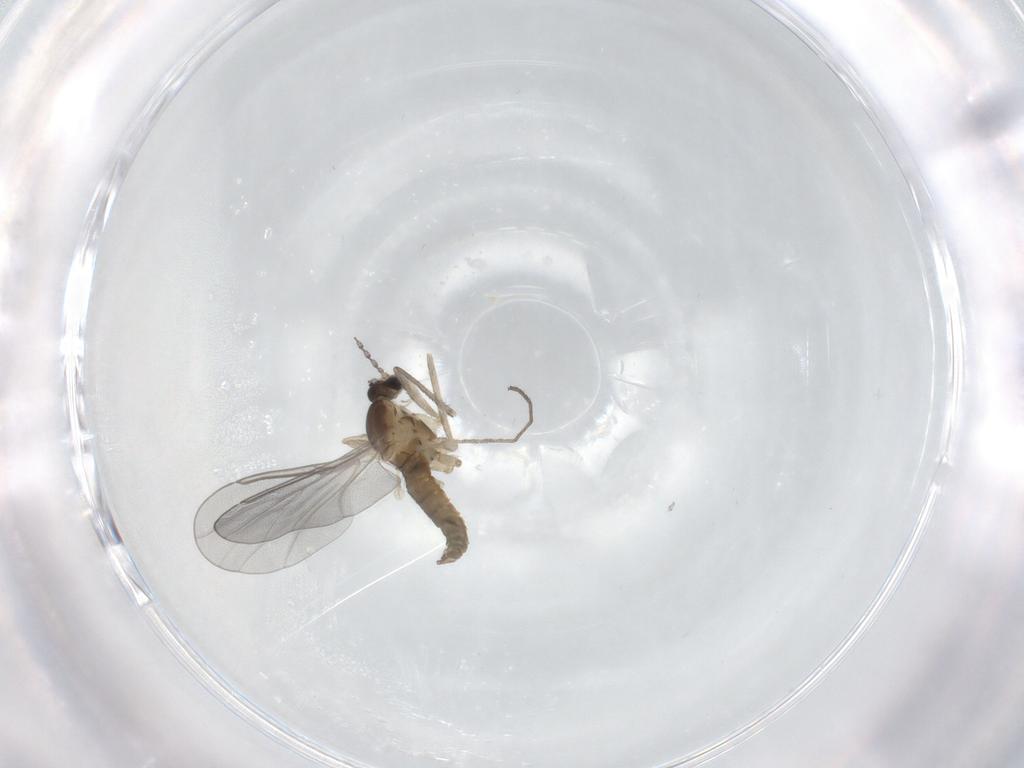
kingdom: Animalia
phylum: Arthropoda
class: Insecta
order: Diptera
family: Cecidomyiidae
